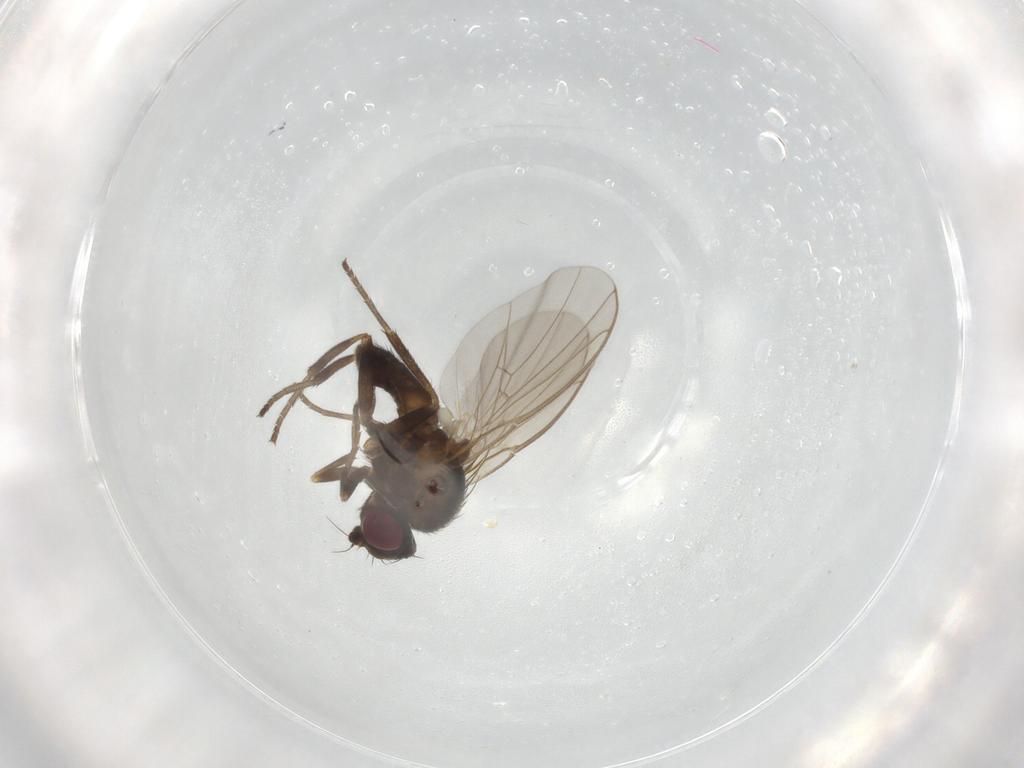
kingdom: Animalia
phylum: Arthropoda
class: Insecta
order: Diptera
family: Agromyzidae
